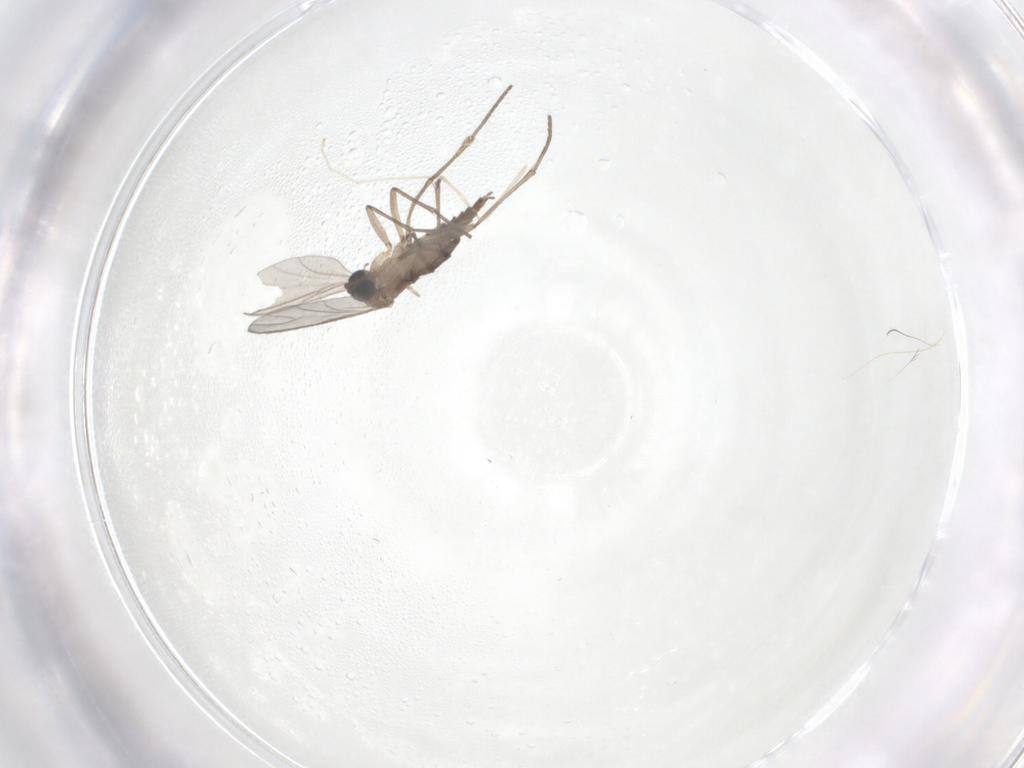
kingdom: Animalia
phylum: Arthropoda
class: Insecta
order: Diptera
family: Sciaridae
